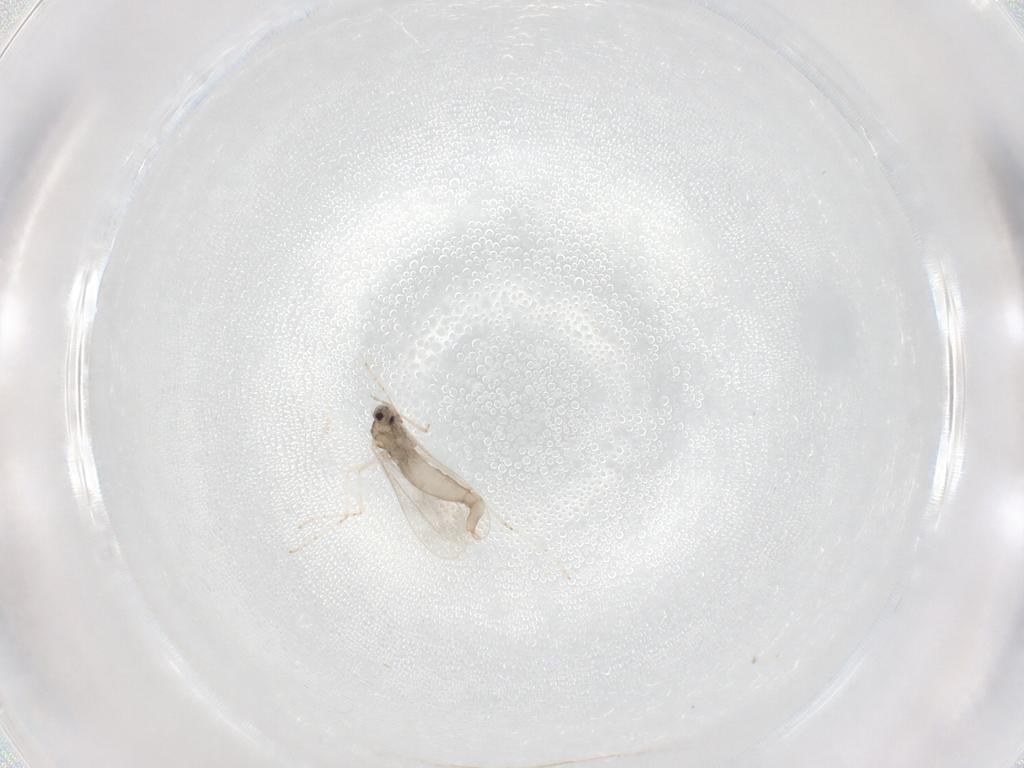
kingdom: Animalia
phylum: Arthropoda
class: Insecta
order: Diptera
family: Cecidomyiidae
